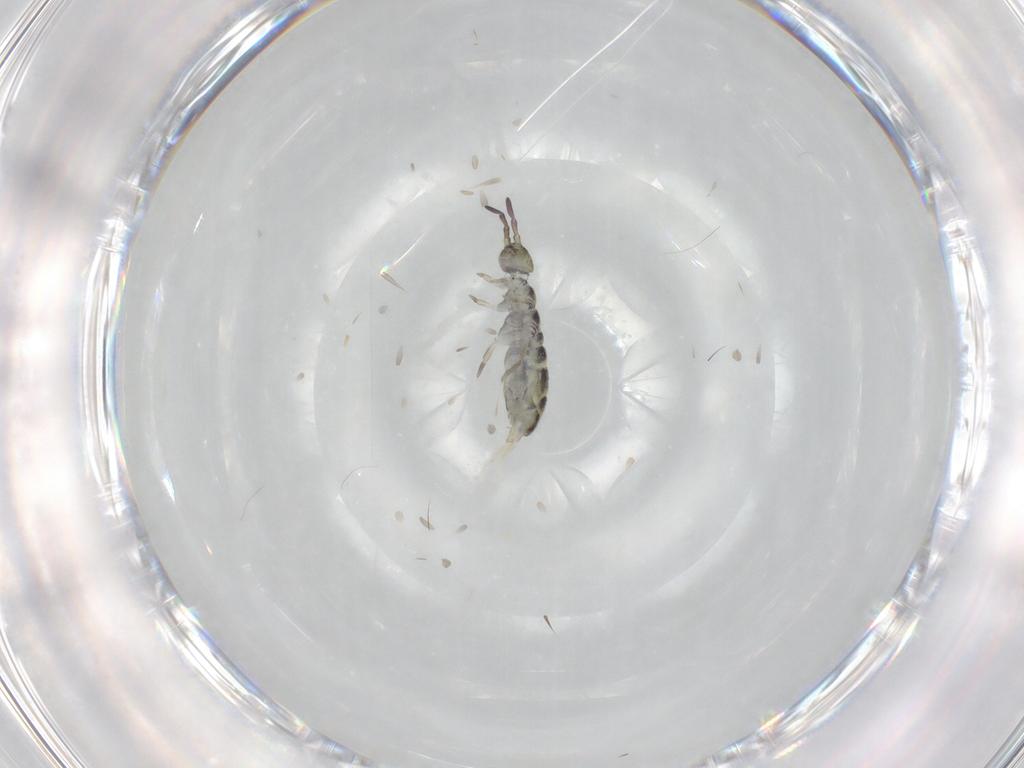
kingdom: Animalia
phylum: Arthropoda
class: Collembola
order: Entomobryomorpha
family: Isotomidae
